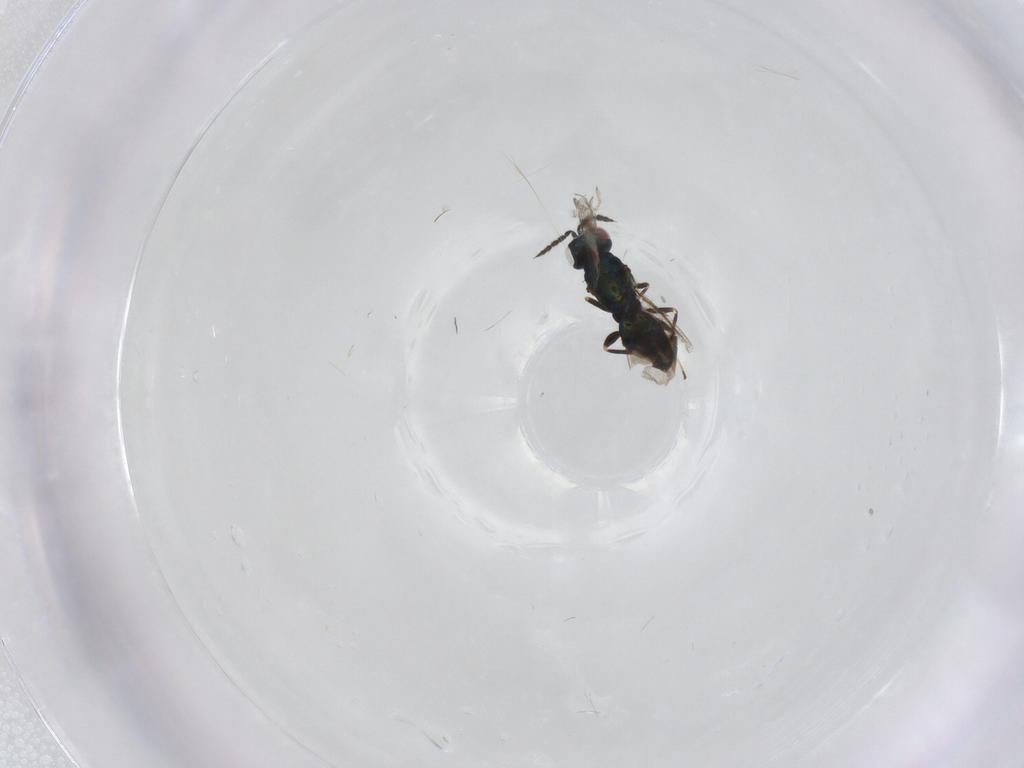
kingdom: Animalia
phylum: Arthropoda
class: Insecta
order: Hymenoptera
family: Eulophidae
